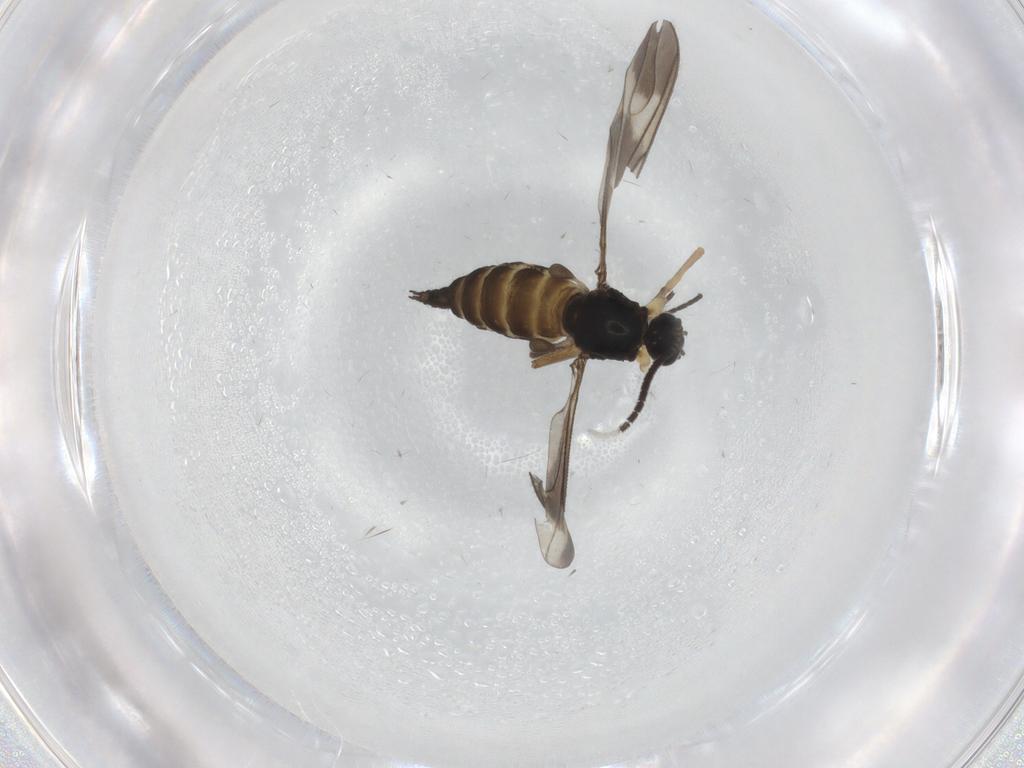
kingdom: Animalia
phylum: Arthropoda
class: Insecta
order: Diptera
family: Sciaridae
